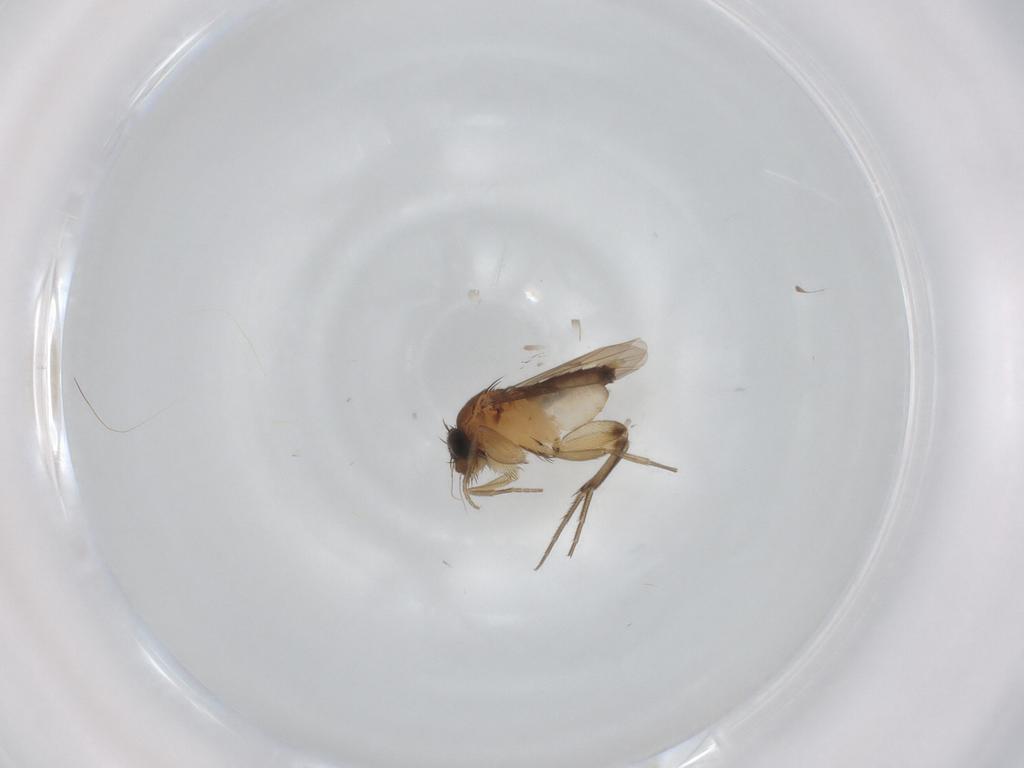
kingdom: Animalia
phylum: Arthropoda
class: Insecta
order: Diptera
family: Phoridae
